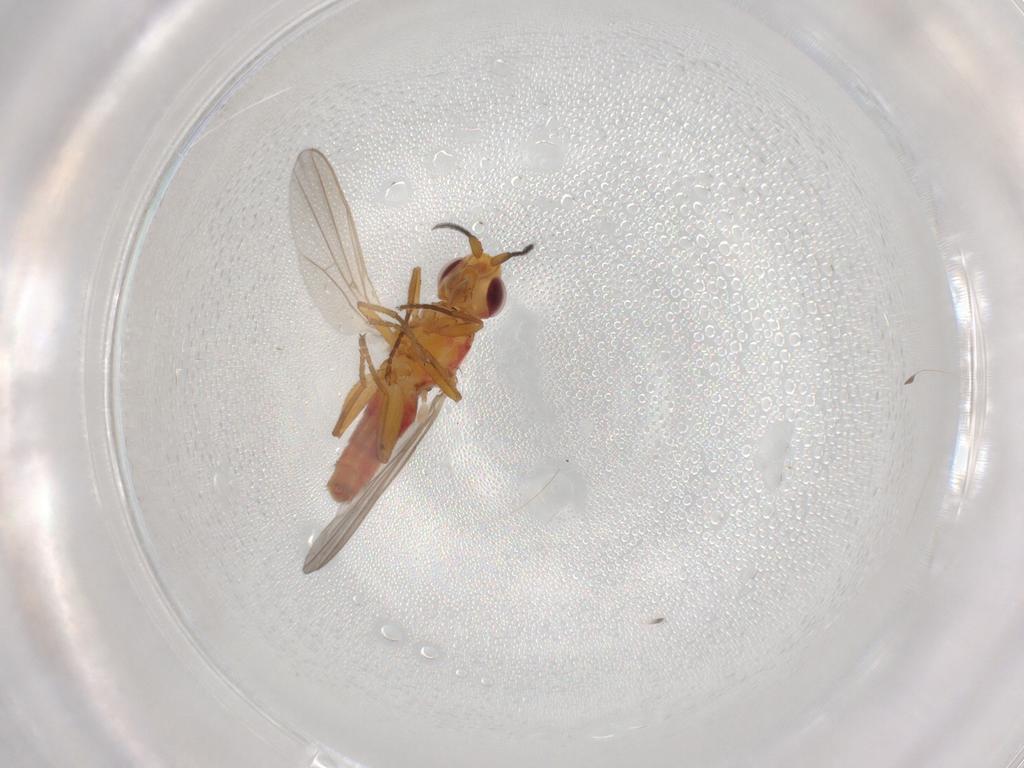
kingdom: Animalia
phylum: Arthropoda
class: Insecta
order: Diptera
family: Chloropidae
